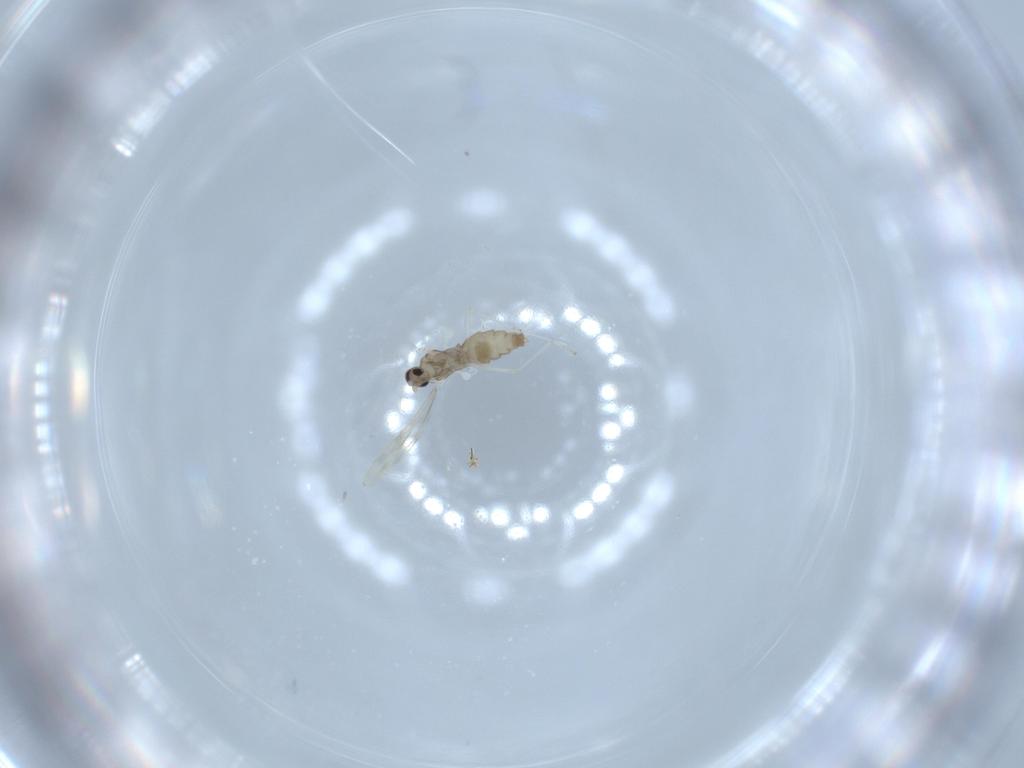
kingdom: Animalia
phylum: Arthropoda
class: Insecta
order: Diptera
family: Cecidomyiidae
